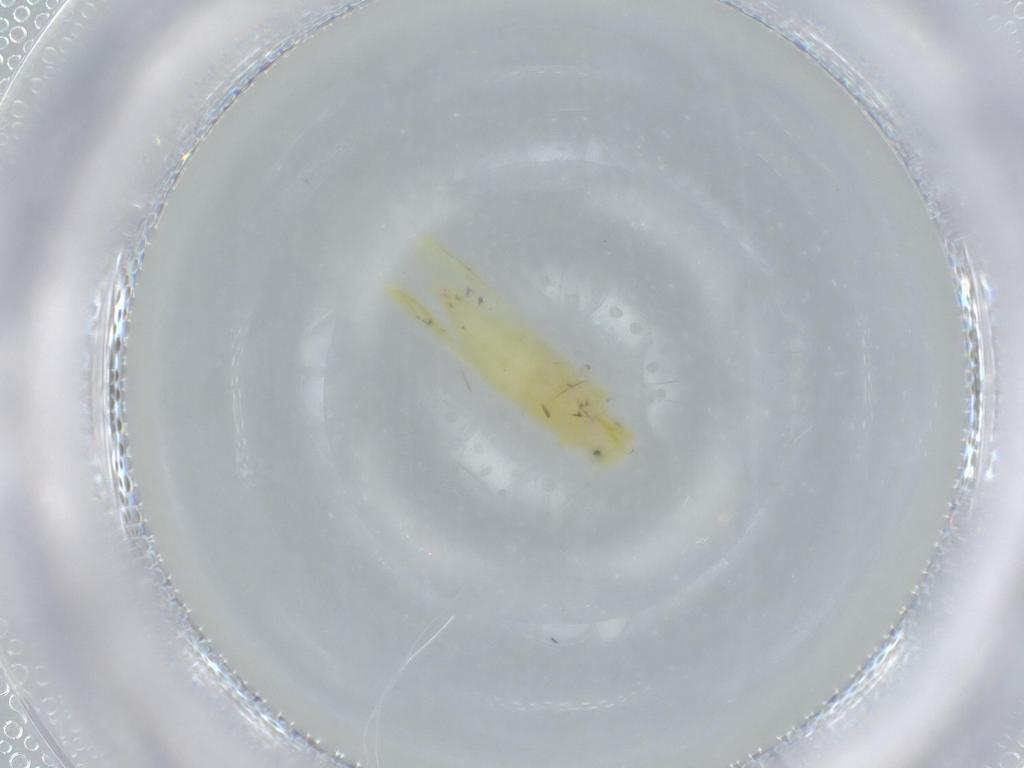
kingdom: Animalia
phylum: Arthropoda
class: Insecta
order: Hemiptera
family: Cicadellidae
